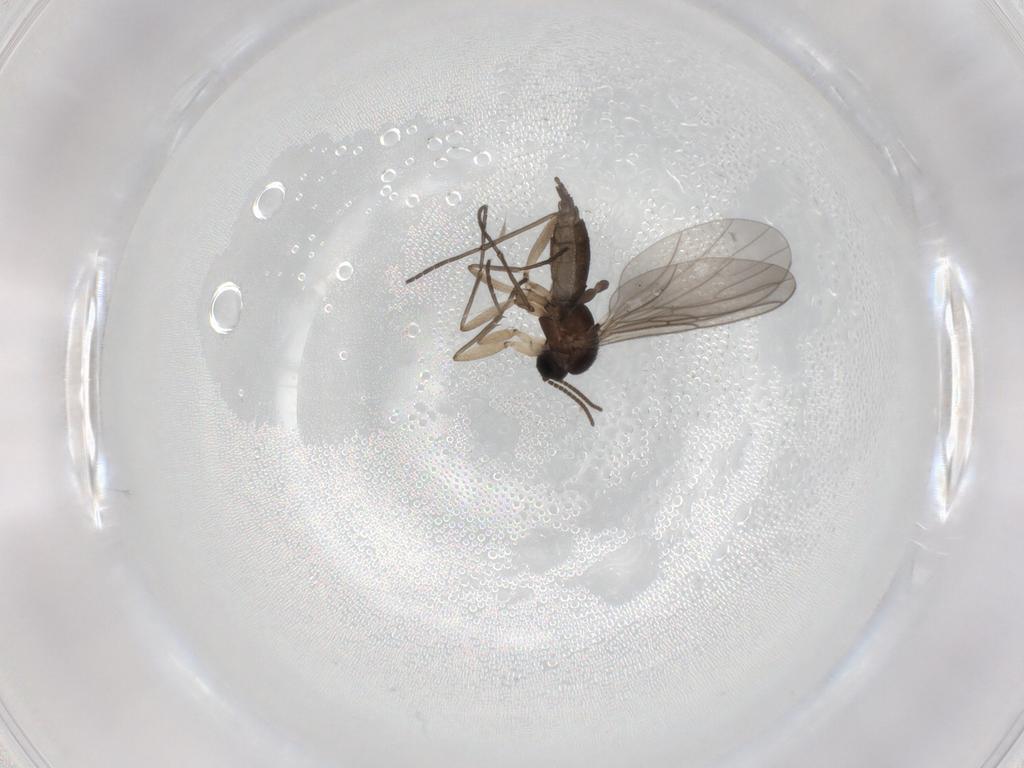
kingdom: Animalia
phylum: Arthropoda
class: Insecta
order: Diptera
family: Sciaridae
